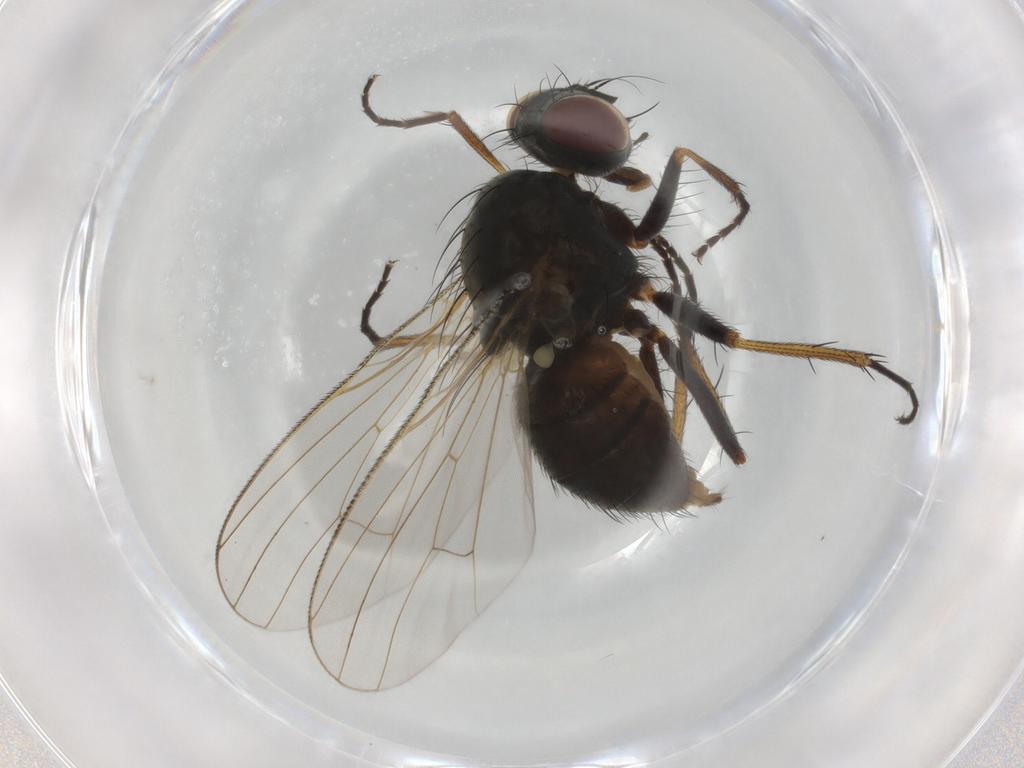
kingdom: Animalia
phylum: Arthropoda
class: Insecta
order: Diptera
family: Muscidae
